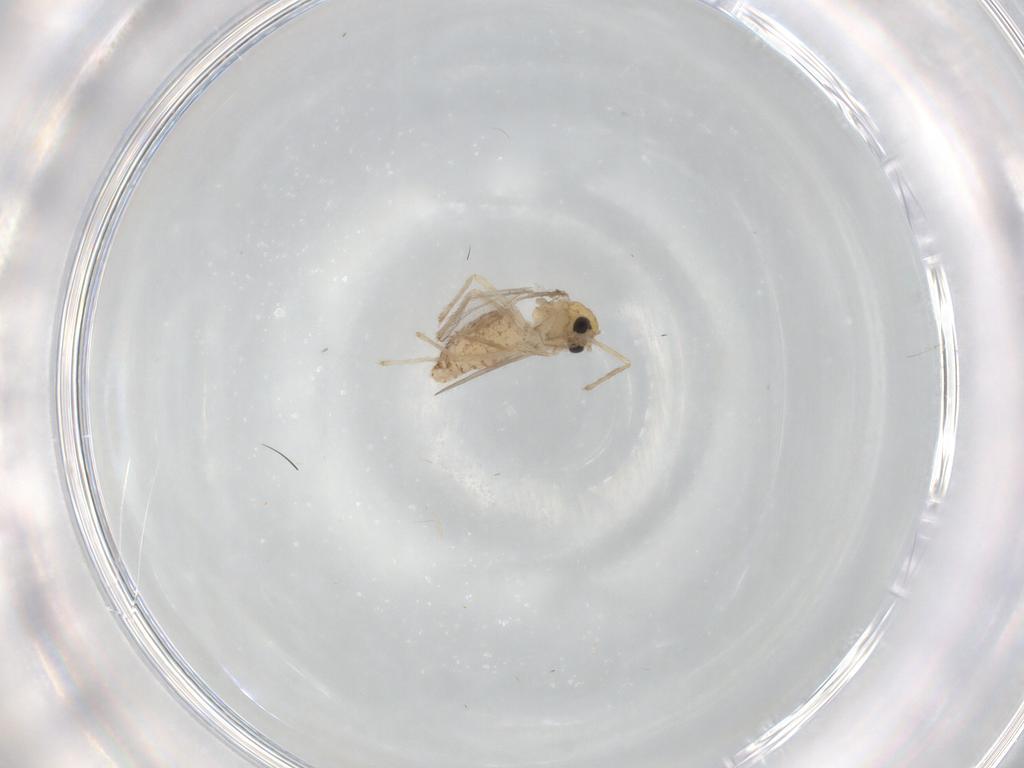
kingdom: Animalia
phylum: Arthropoda
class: Insecta
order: Diptera
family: Chironomidae
